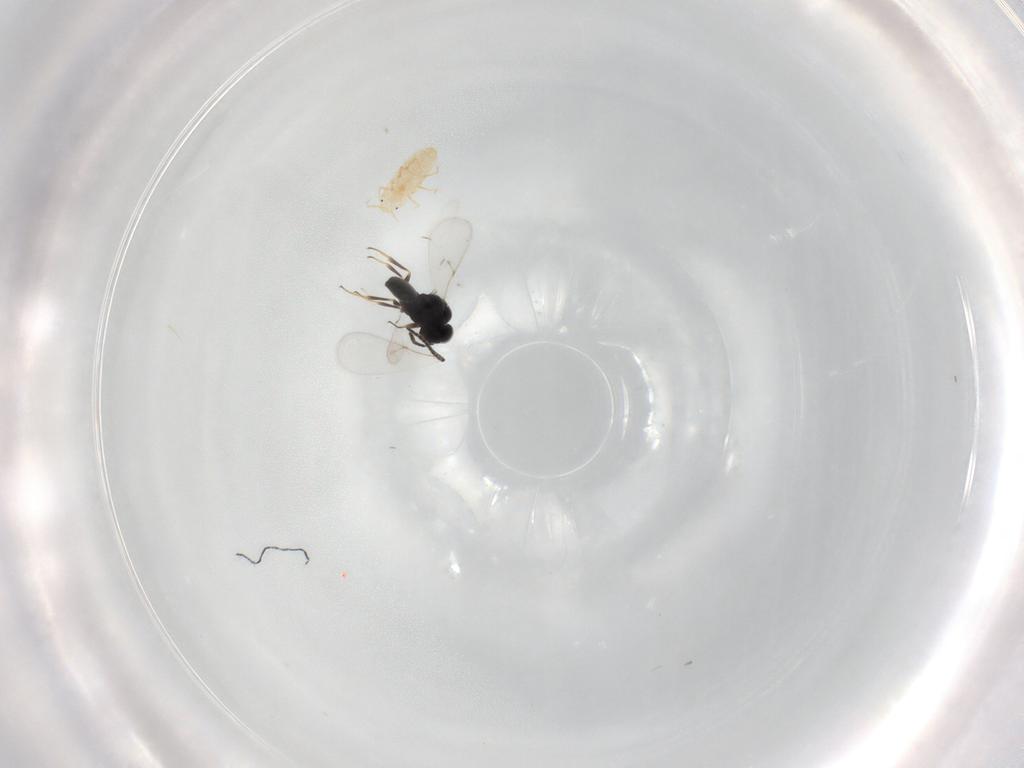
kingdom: Animalia
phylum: Arthropoda
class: Insecta
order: Hymenoptera
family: Scelionidae
